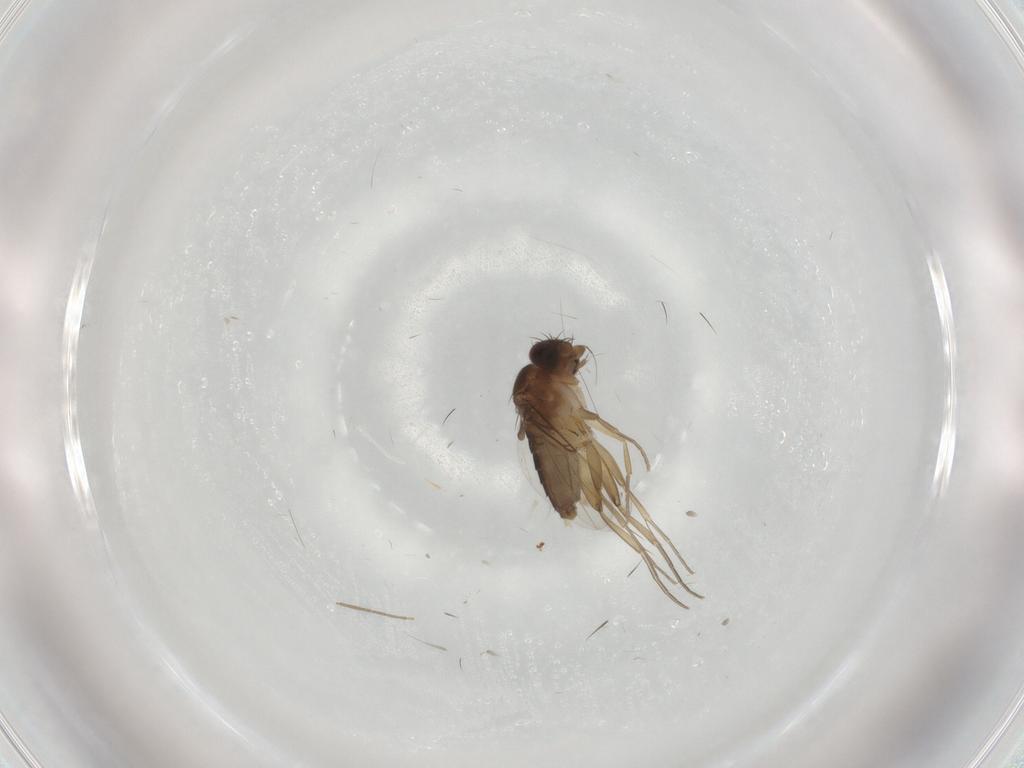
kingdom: Animalia
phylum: Arthropoda
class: Insecta
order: Diptera
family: Phoridae
